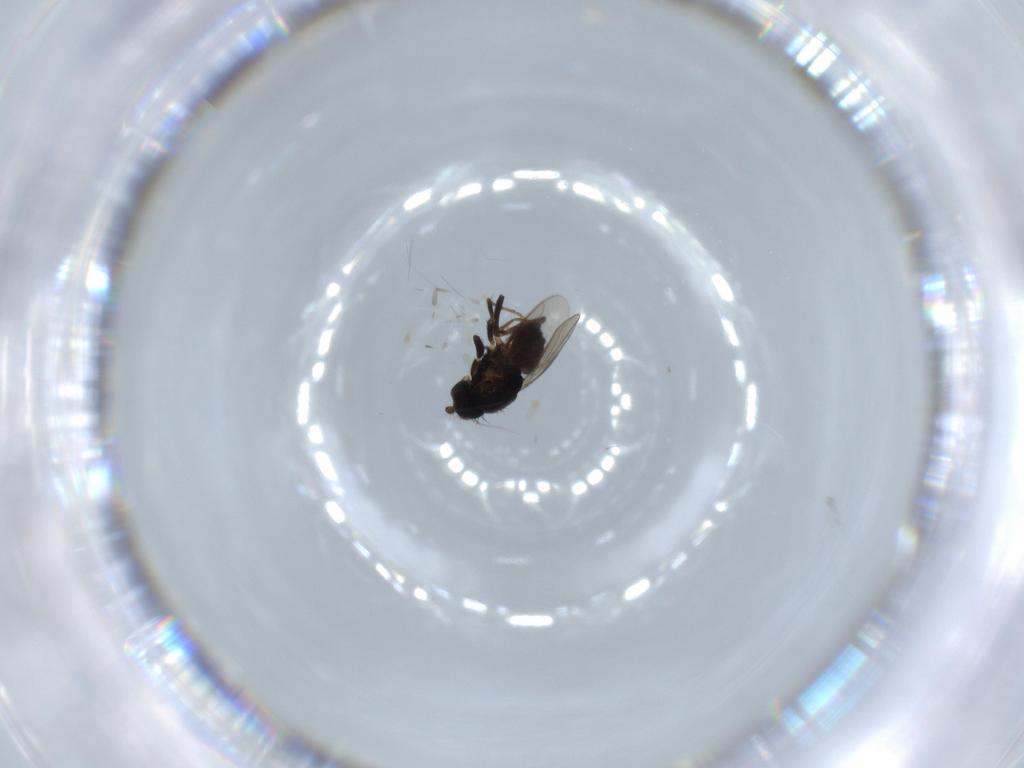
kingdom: Animalia
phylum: Arthropoda
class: Insecta
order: Diptera
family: Sphaeroceridae
